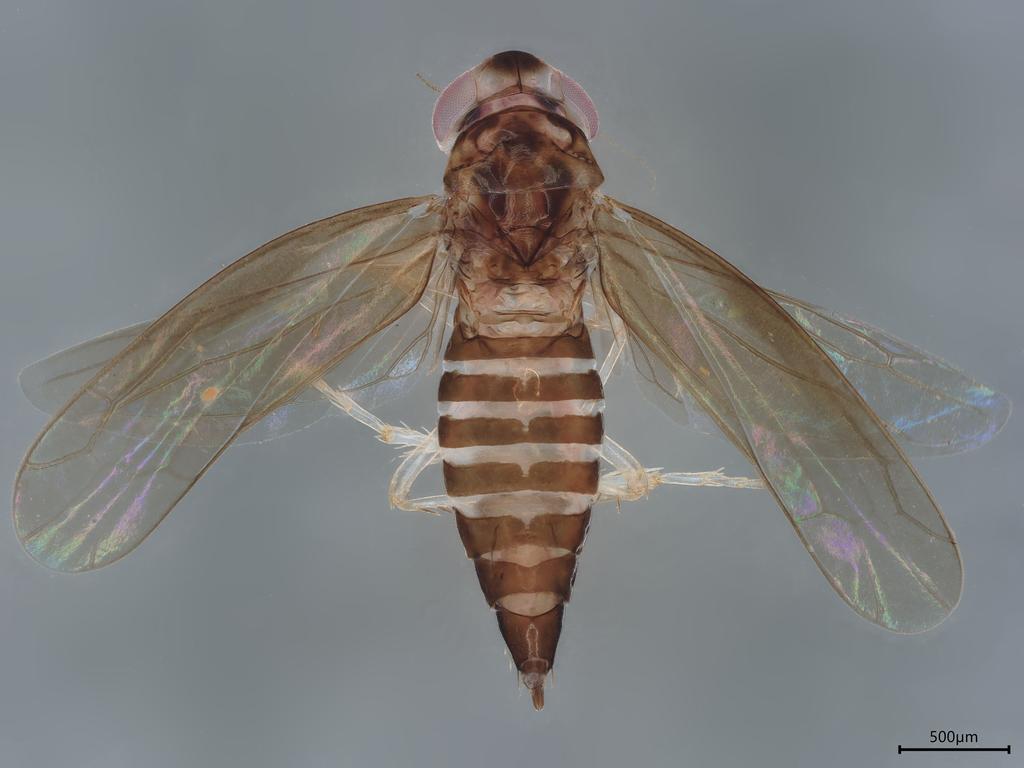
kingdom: Animalia
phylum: Arthropoda
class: Insecta
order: Hemiptera
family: Cicadellidae
